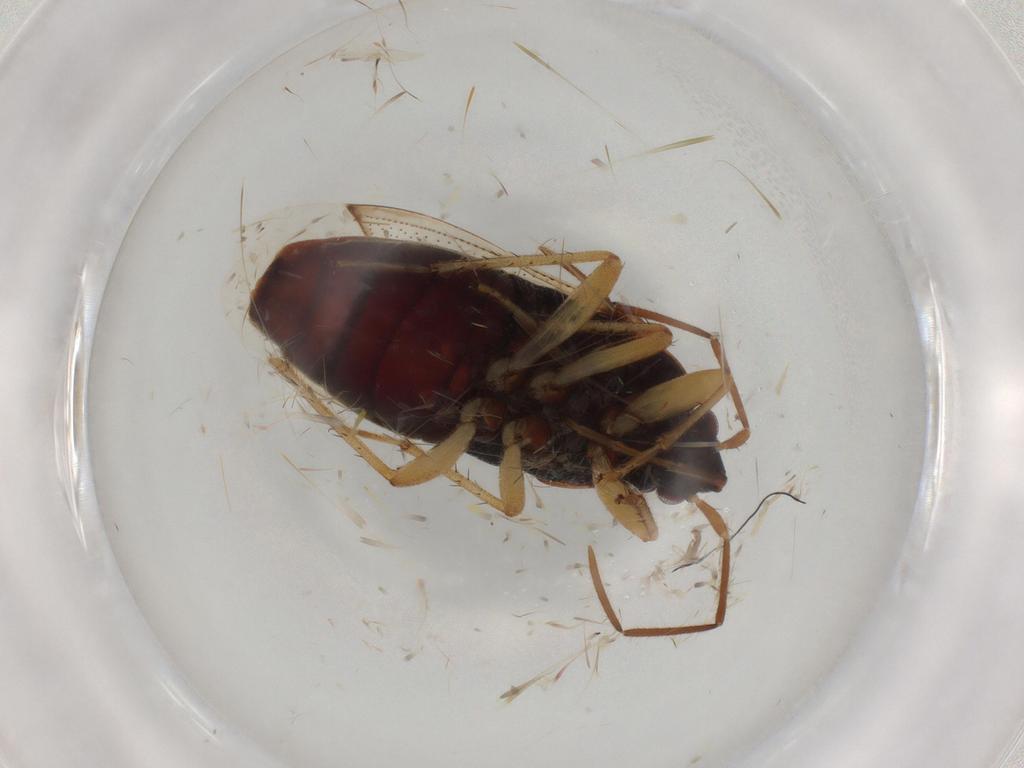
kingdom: Animalia
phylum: Arthropoda
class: Insecta
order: Hemiptera
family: Rhyparochromidae
